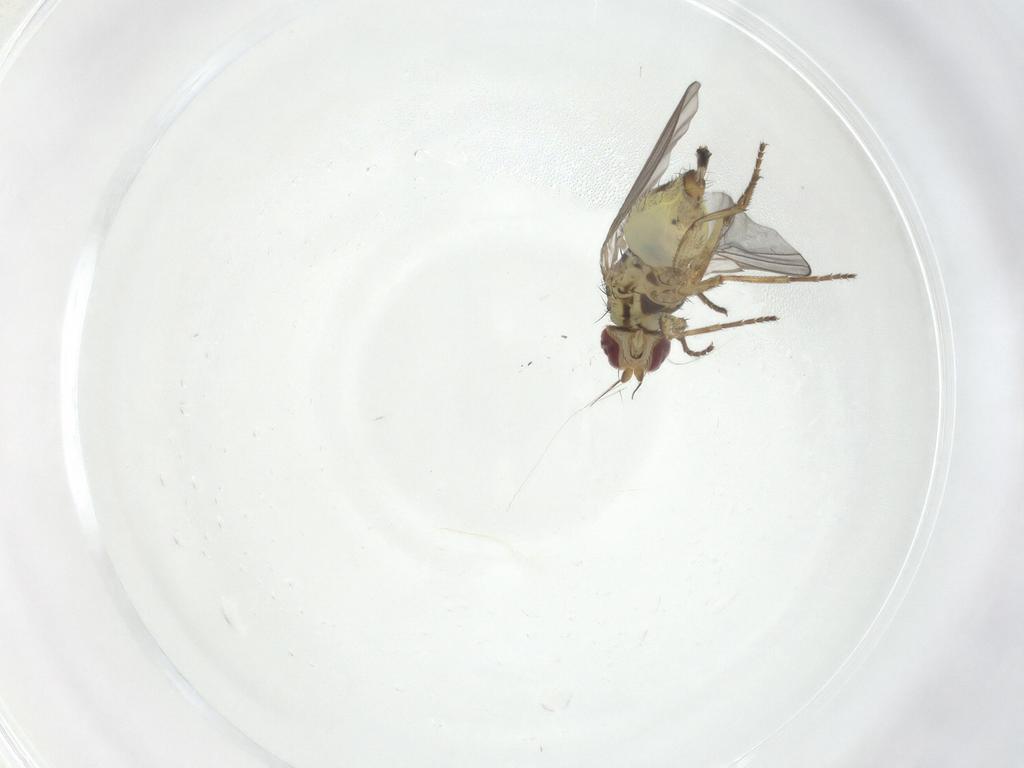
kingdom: Animalia
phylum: Arthropoda
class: Insecta
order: Diptera
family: Agromyzidae
